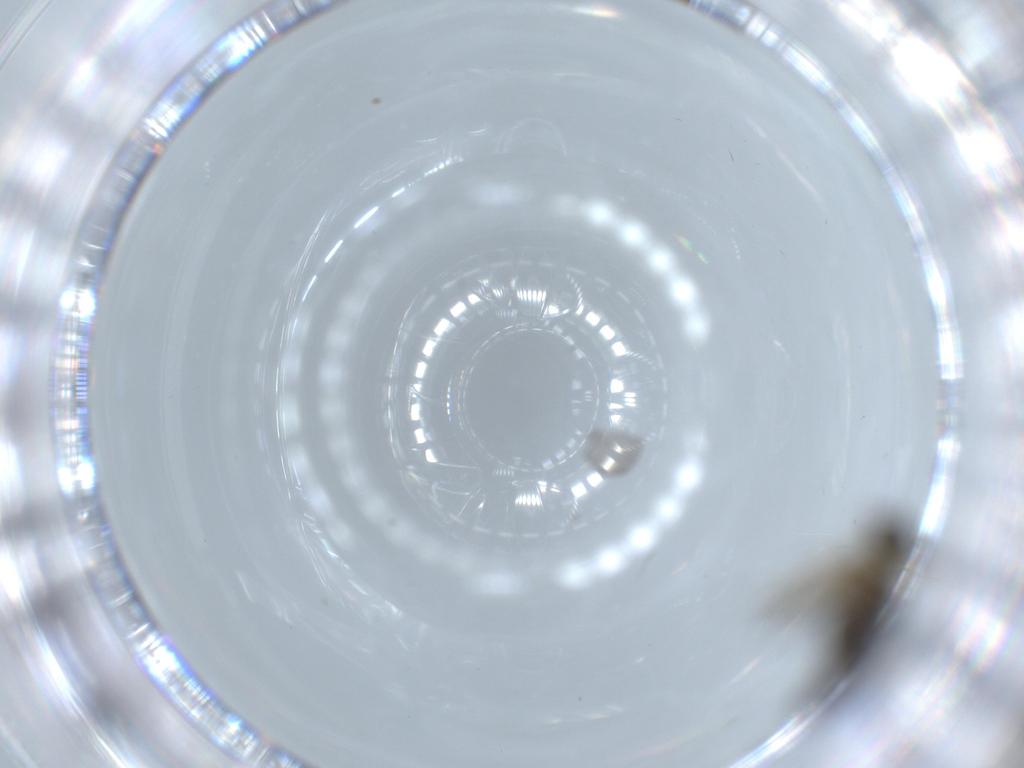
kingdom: Animalia
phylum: Arthropoda
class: Insecta
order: Diptera
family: Hybotidae
